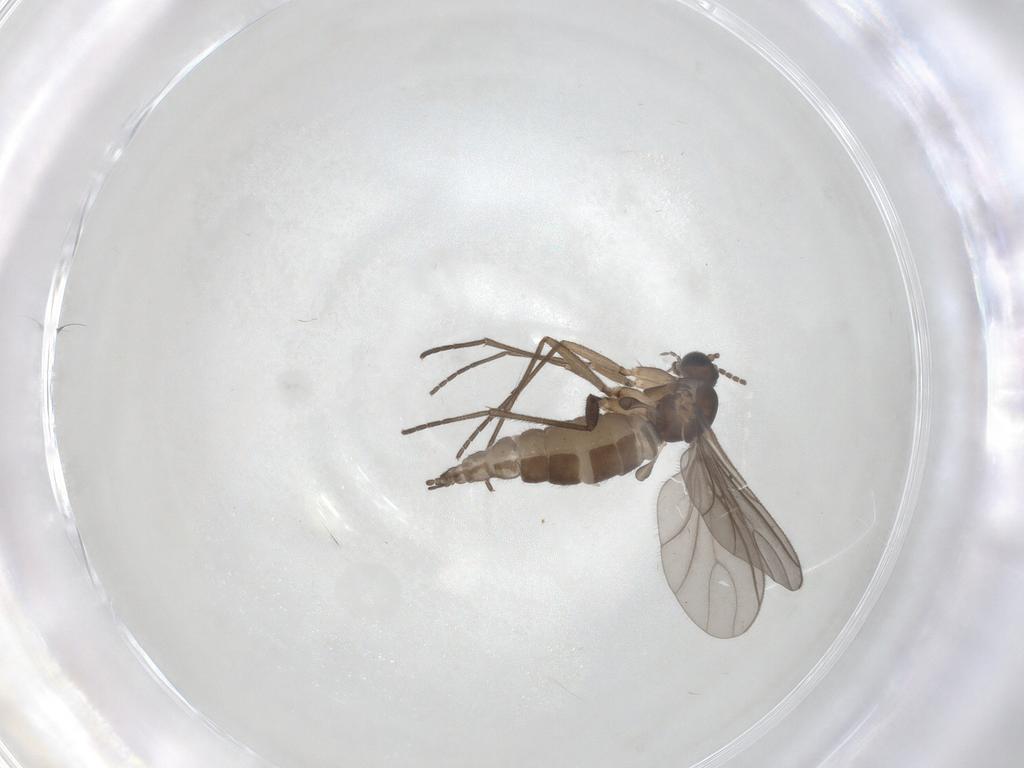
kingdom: Animalia
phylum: Arthropoda
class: Insecta
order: Diptera
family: Sciaridae
